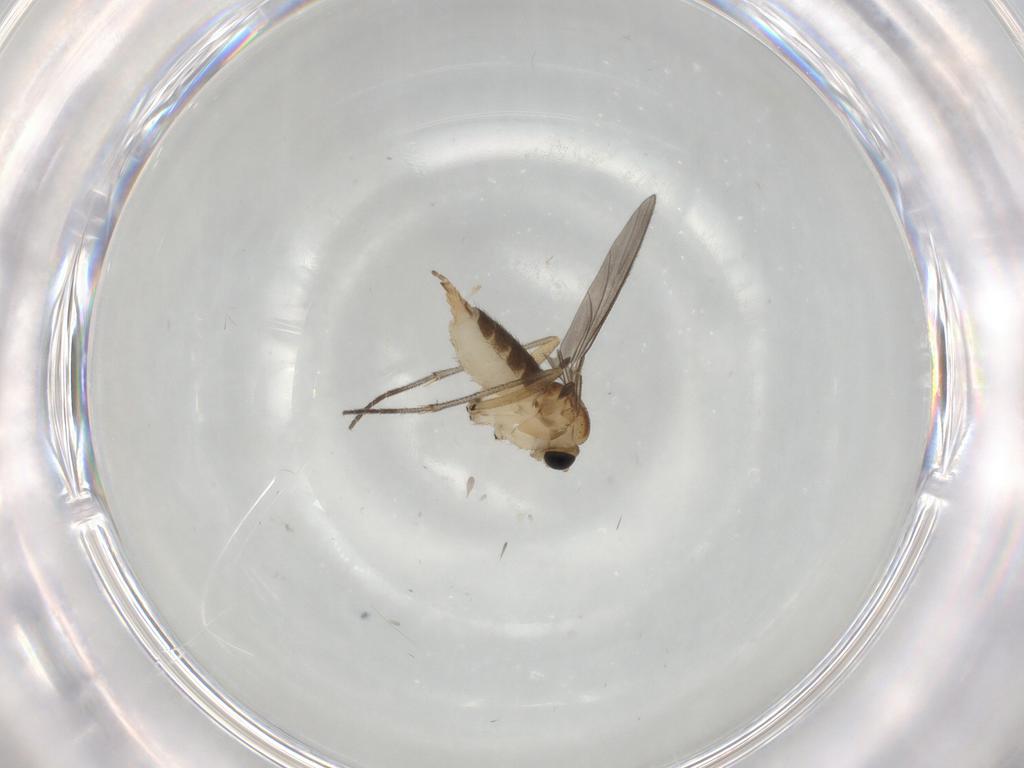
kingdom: Animalia
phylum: Arthropoda
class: Insecta
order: Diptera
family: Sciaridae
